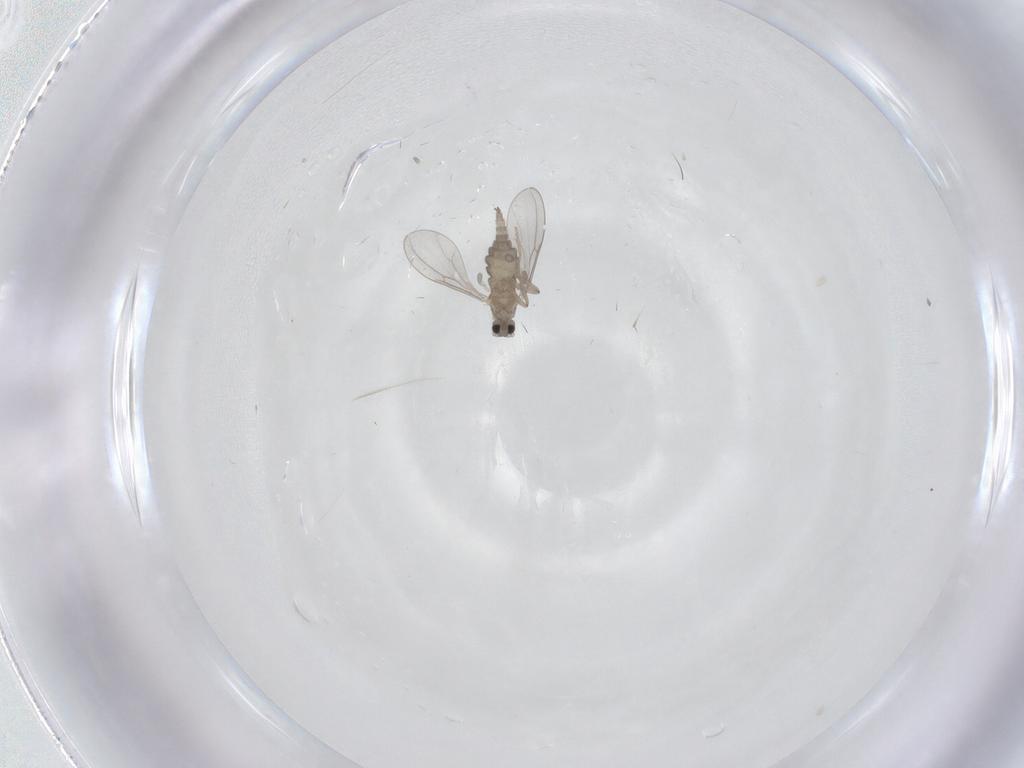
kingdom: Animalia
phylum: Arthropoda
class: Insecta
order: Diptera
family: Cecidomyiidae
